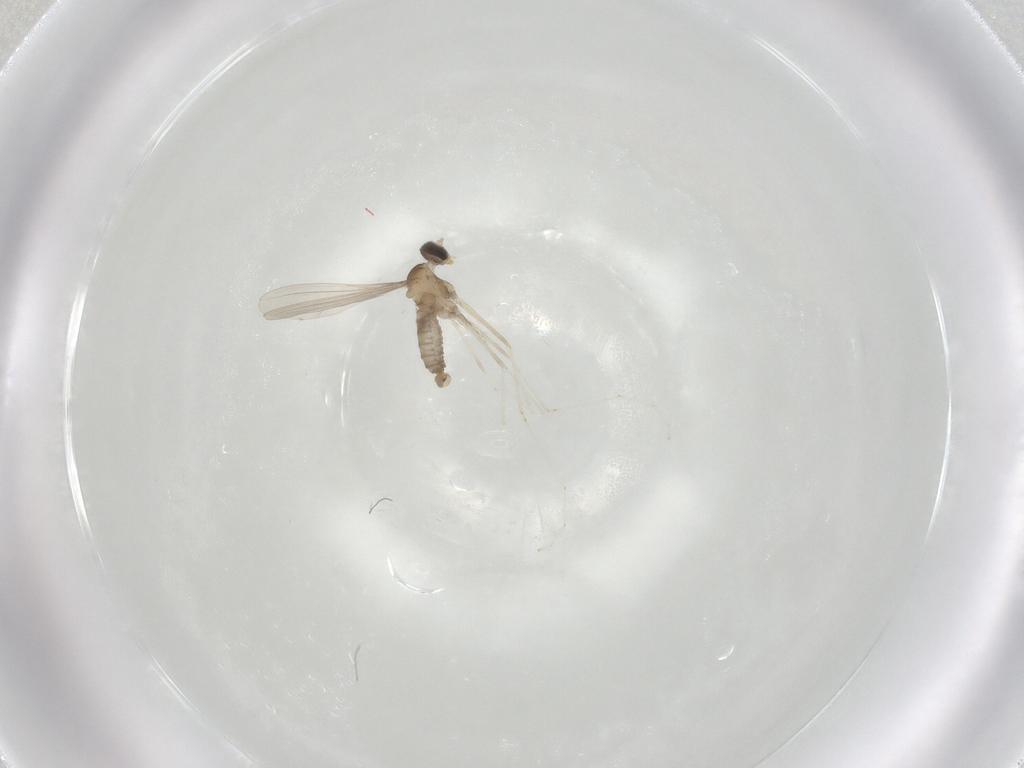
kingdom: Animalia
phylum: Arthropoda
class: Insecta
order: Diptera
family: Cecidomyiidae
